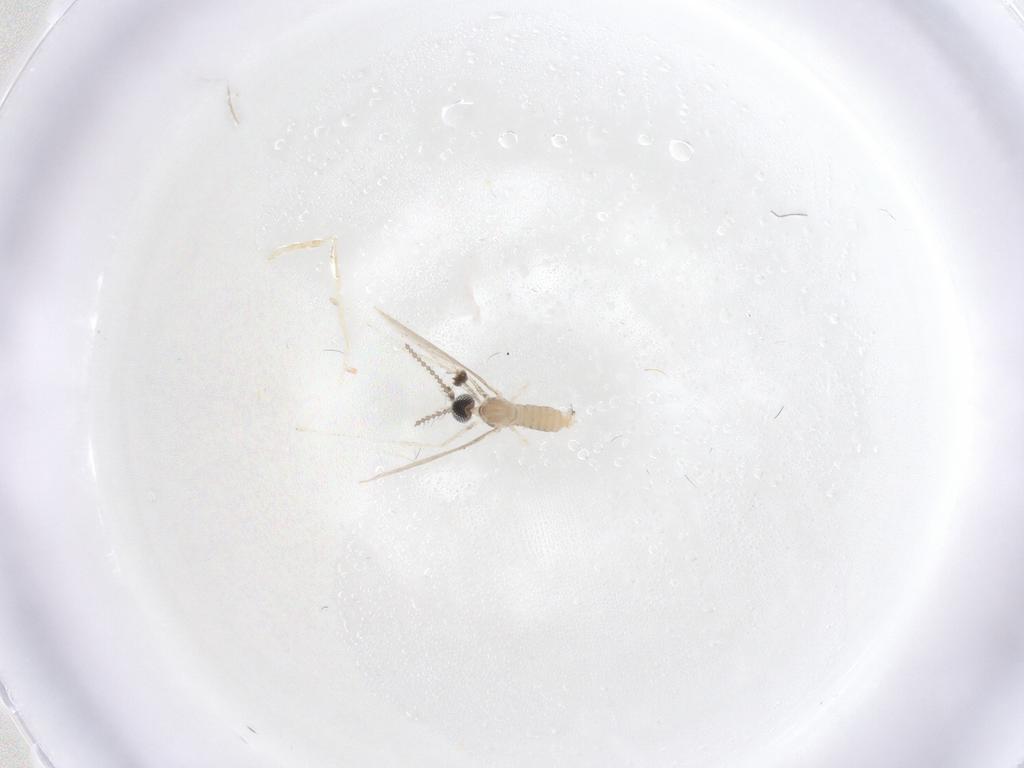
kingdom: Animalia
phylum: Arthropoda
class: Insecta
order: Diptera
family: Cecidomyiidae
